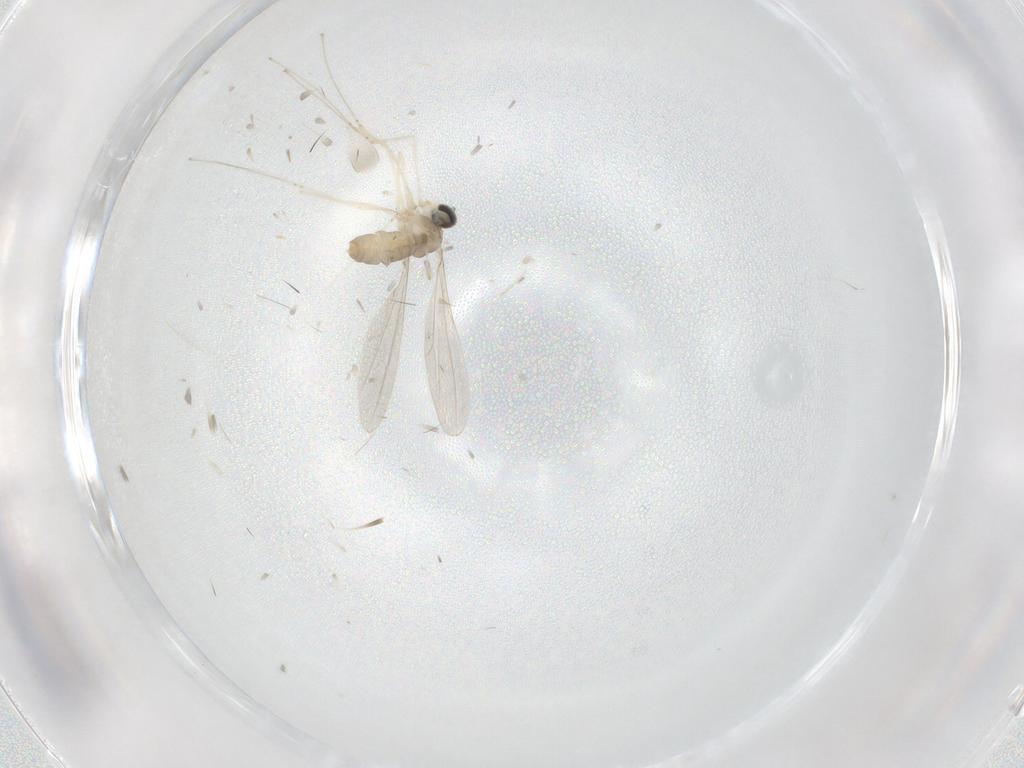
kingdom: Animalia
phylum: Arthropoda
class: Insecta
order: Diptera
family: Cecidomyiidae
